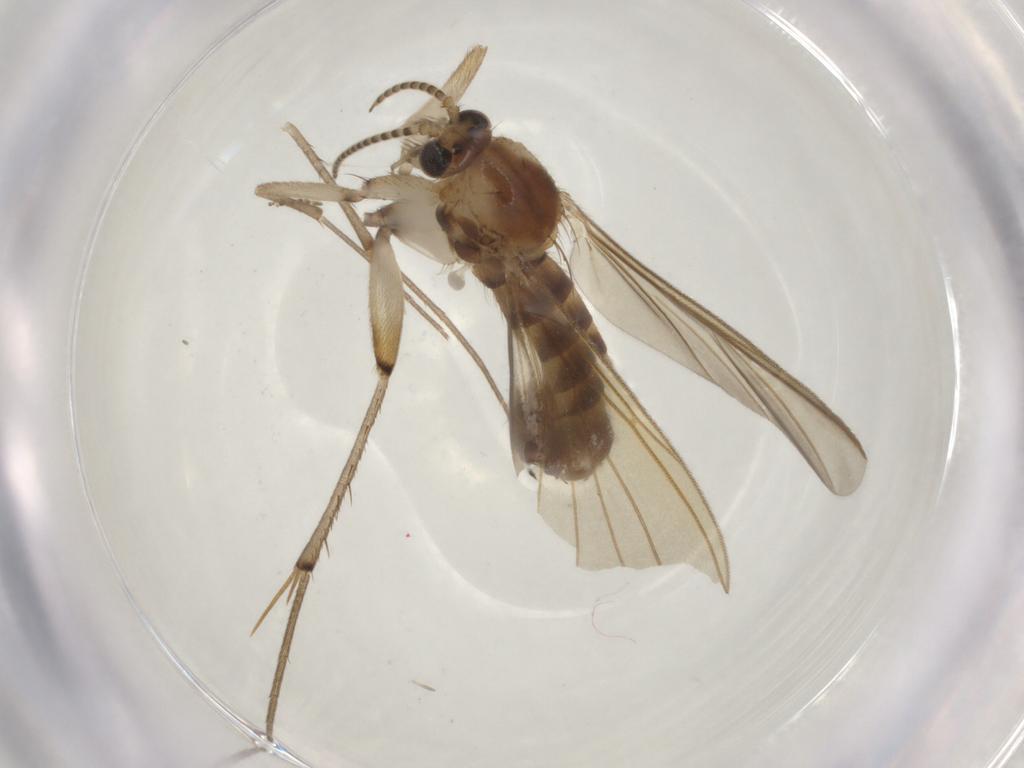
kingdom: Animalia
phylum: Arthropoda
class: Insecta
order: Diptera
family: Mycetophilidae
